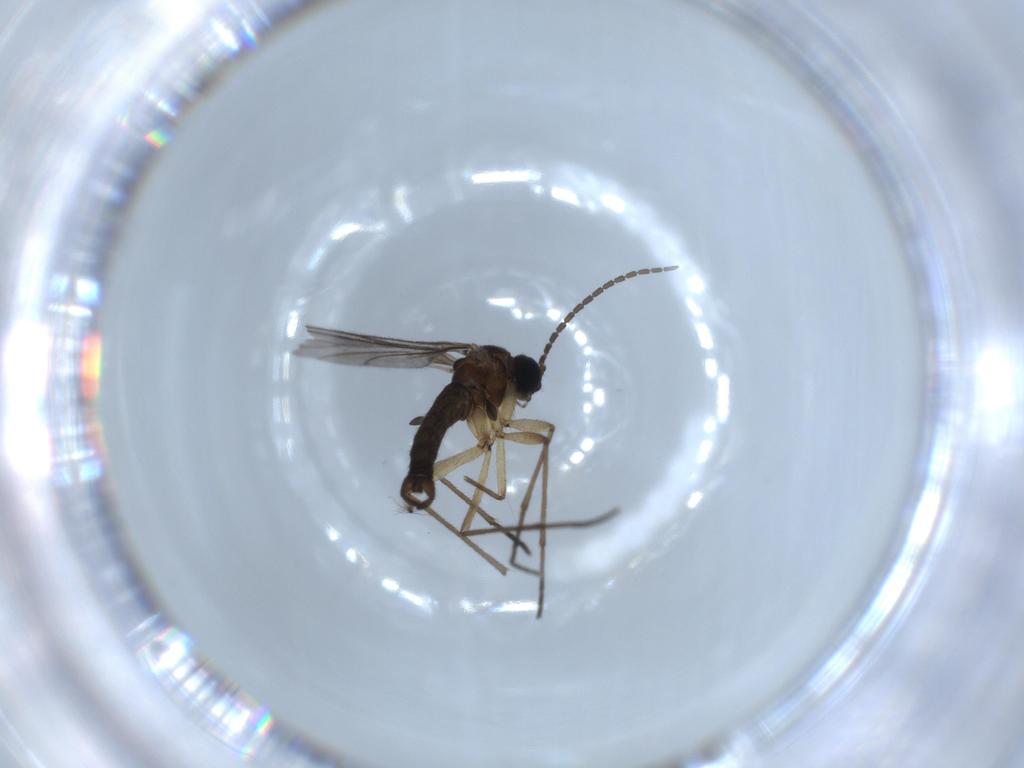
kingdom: Animalia
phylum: Arthropoda
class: Insecta
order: Diptera
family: Sciaridae
